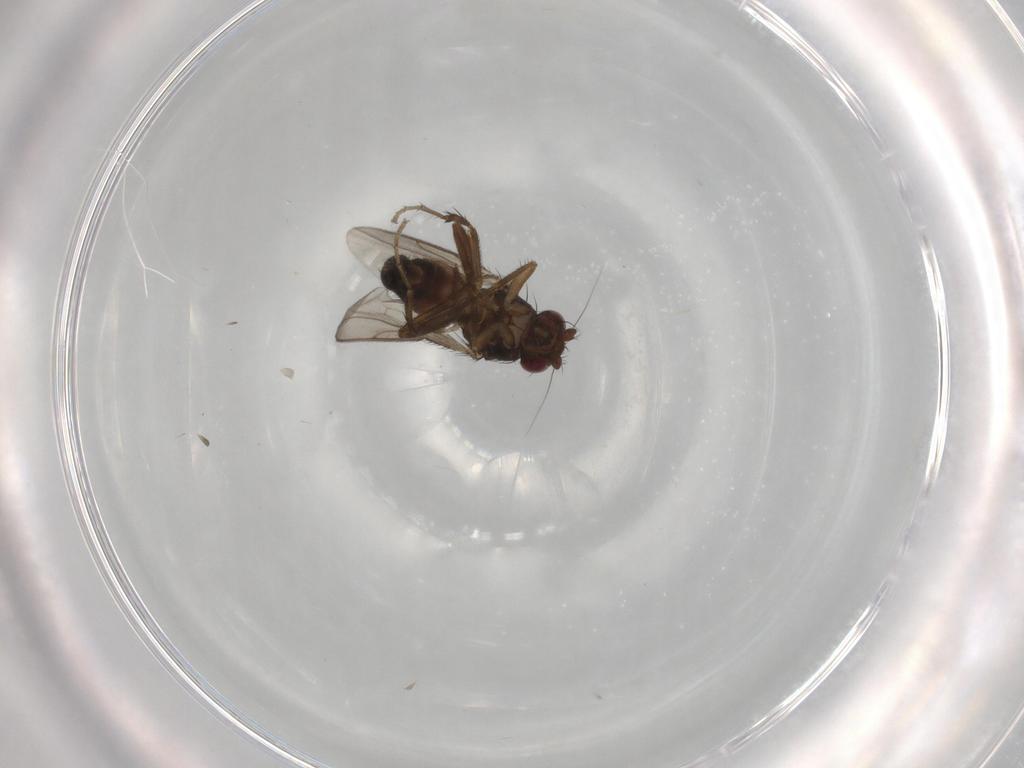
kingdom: Animalia
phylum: Arthropoda
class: Insecta
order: Diptera
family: Sphaeroceridae
